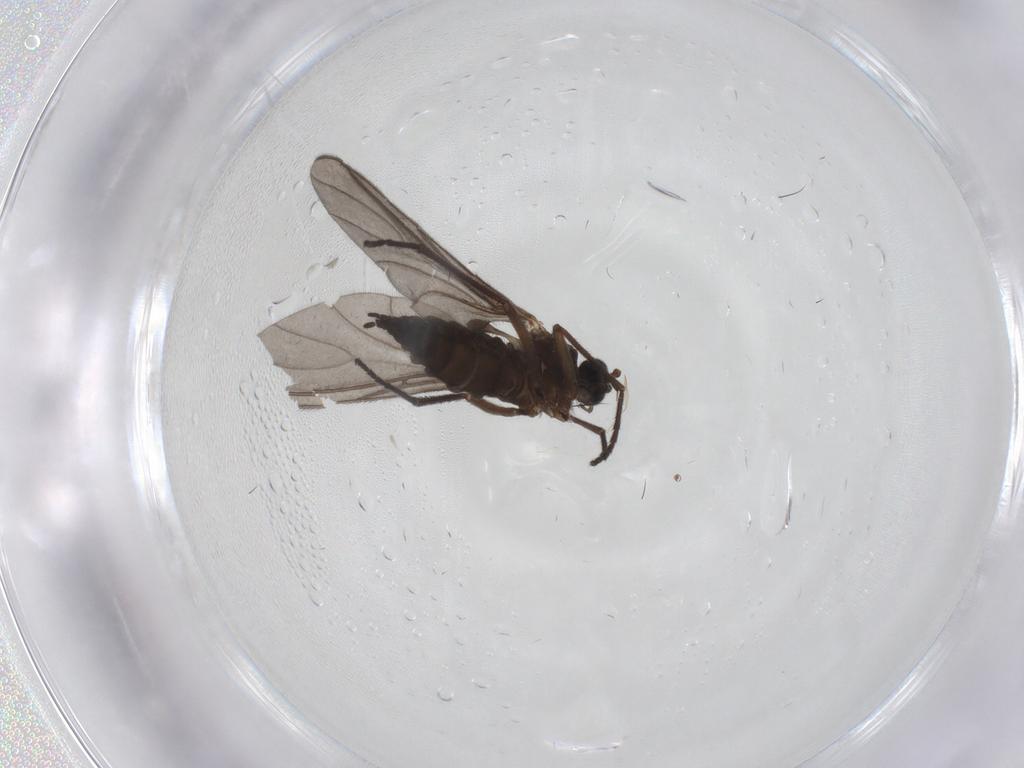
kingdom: Animalia
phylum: Arthropoda
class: Insecta
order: Diptera
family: Sciaridae
